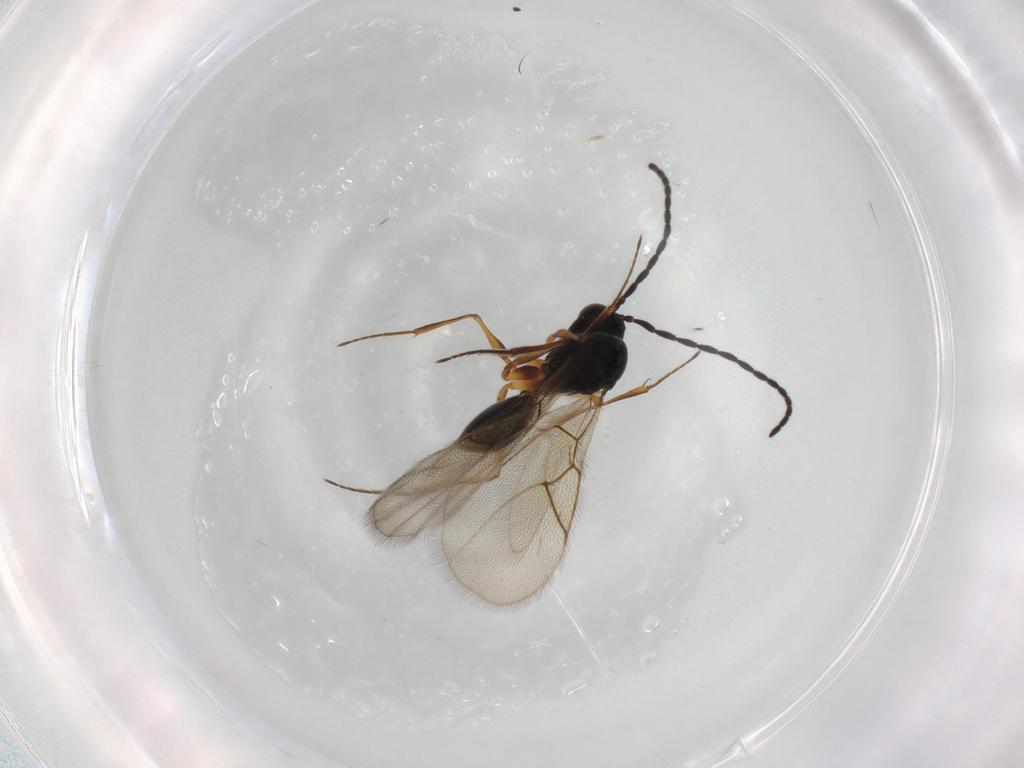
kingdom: Animalia
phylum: Arthropoda
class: Insecta
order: Hymenoptera
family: Figitidae
